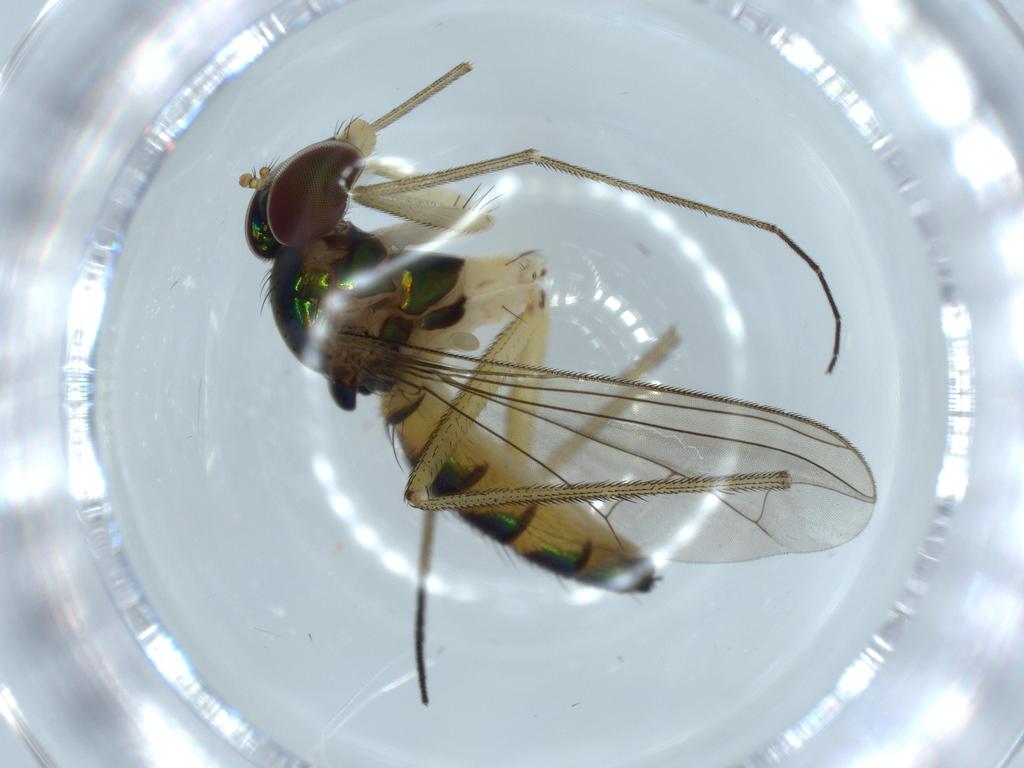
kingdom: Animalia
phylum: Arthropoda
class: Insecta
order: Diptera
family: Dolichopodidae
